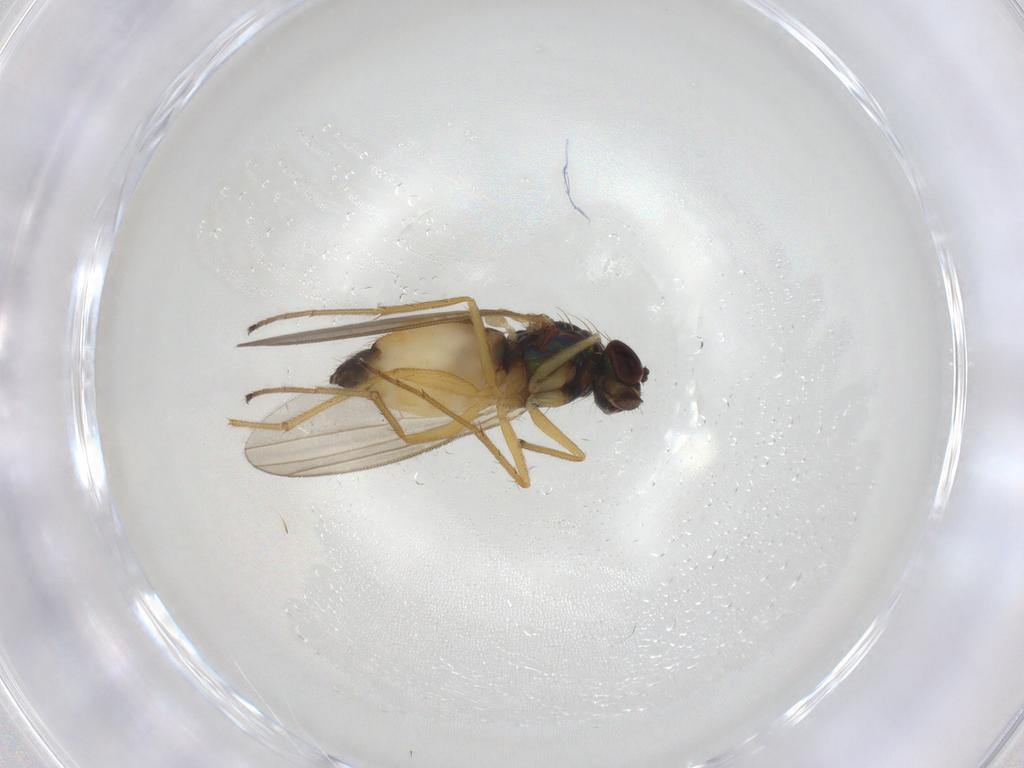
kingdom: Animalia
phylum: Arthropoda
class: Insecta
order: Diptera
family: Dolichopodidae
